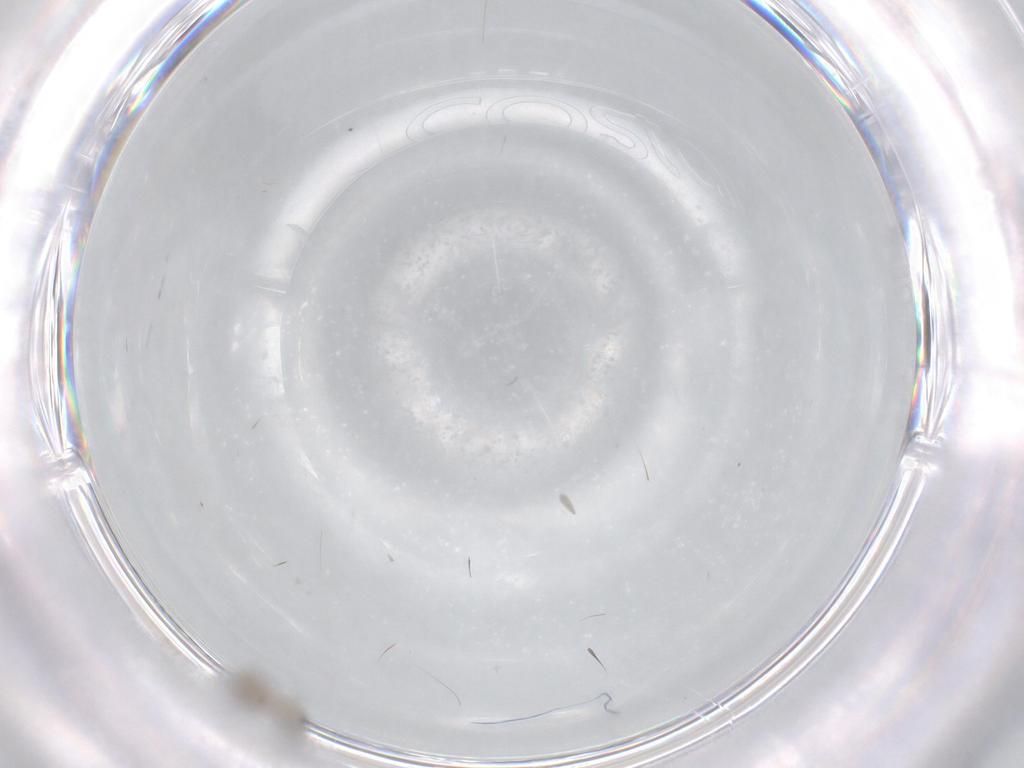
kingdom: Animalia
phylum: Arthropoda
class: Insecta
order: Diptera
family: Cecidomyiidae
